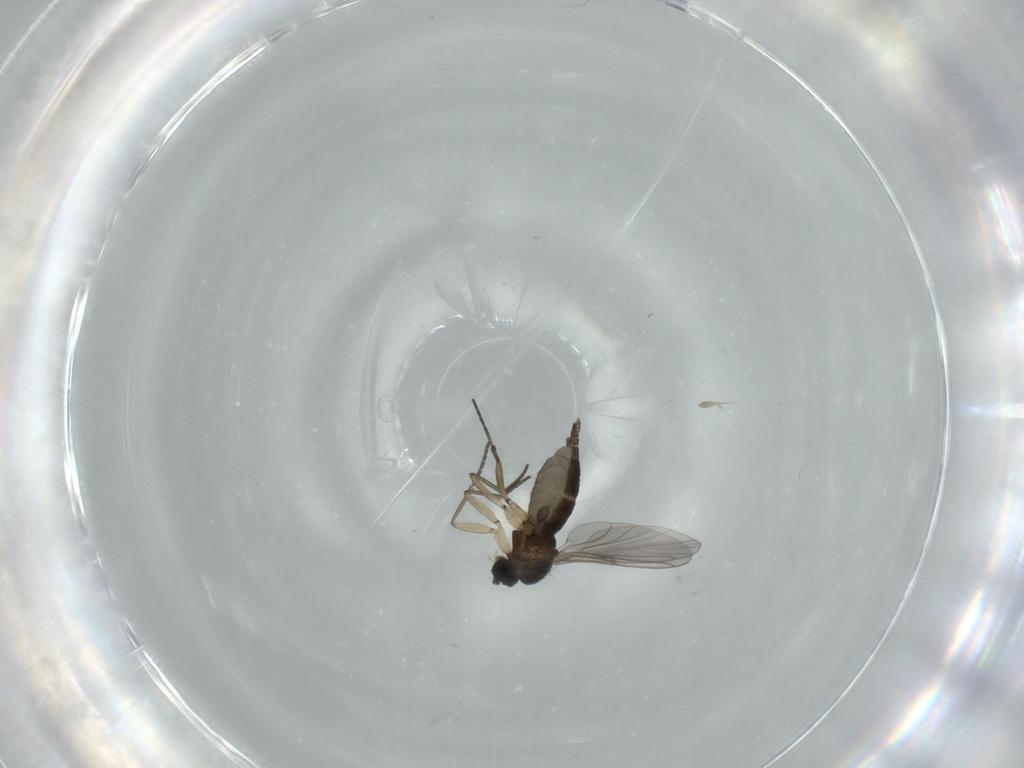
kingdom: Animalia
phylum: Arthropoda
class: Insecta
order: Diptera
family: Sciaridae
